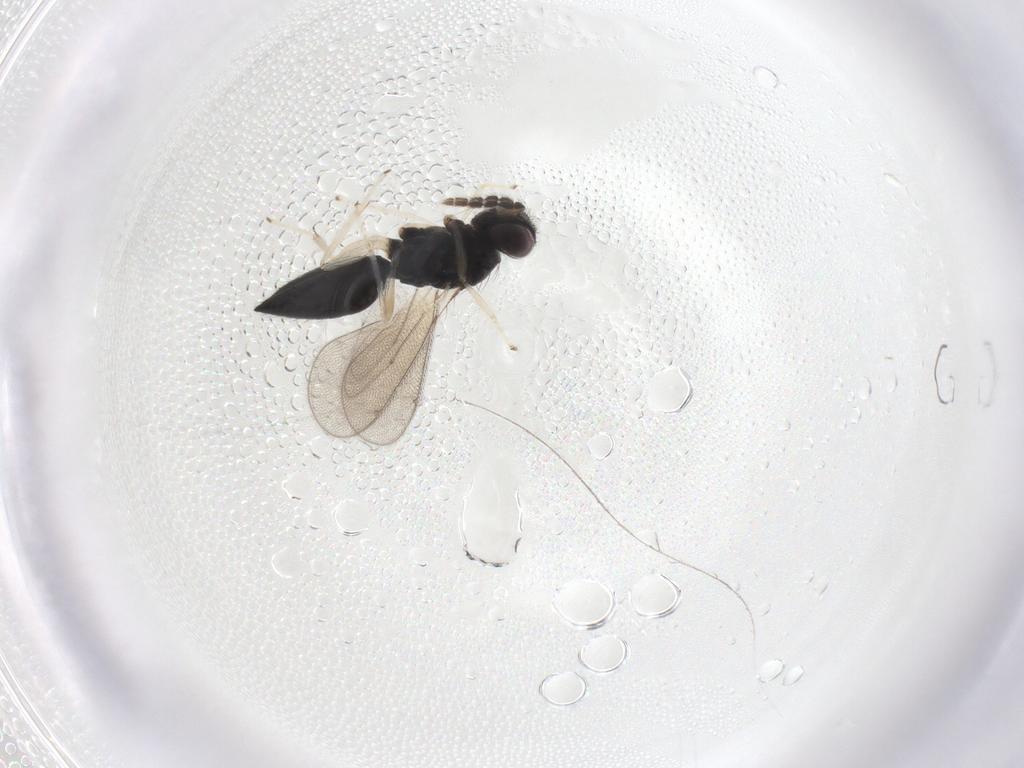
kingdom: Animalia
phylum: Arthropoda
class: Insecta
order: Hymenoptera
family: Eulophidae
